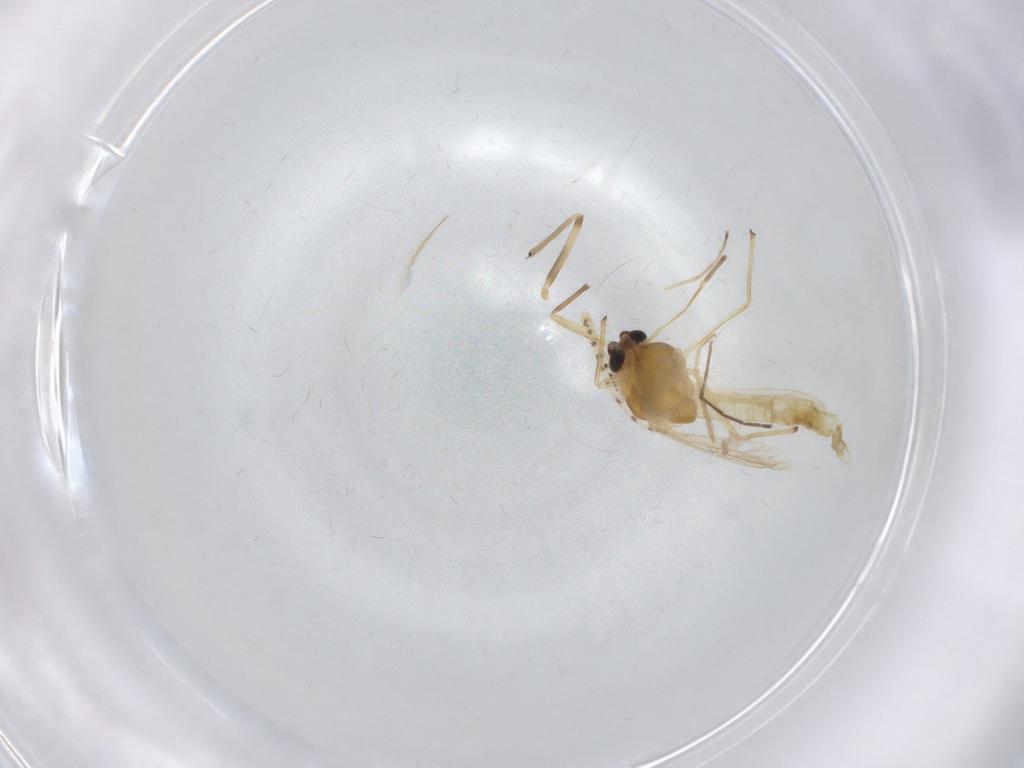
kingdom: Animalia
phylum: Arthropoda
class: Insecta
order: Diptera
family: Chironomidae
